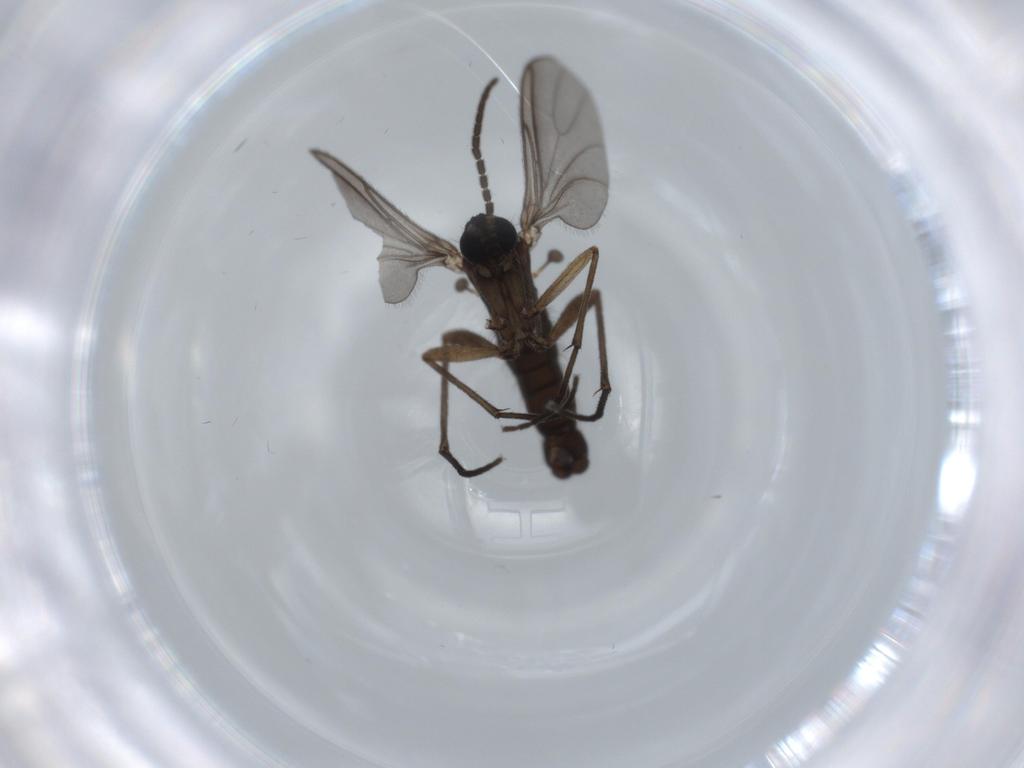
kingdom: Animalia
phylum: Arthropoda
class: Insecta
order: Diptera
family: Sciaridae
